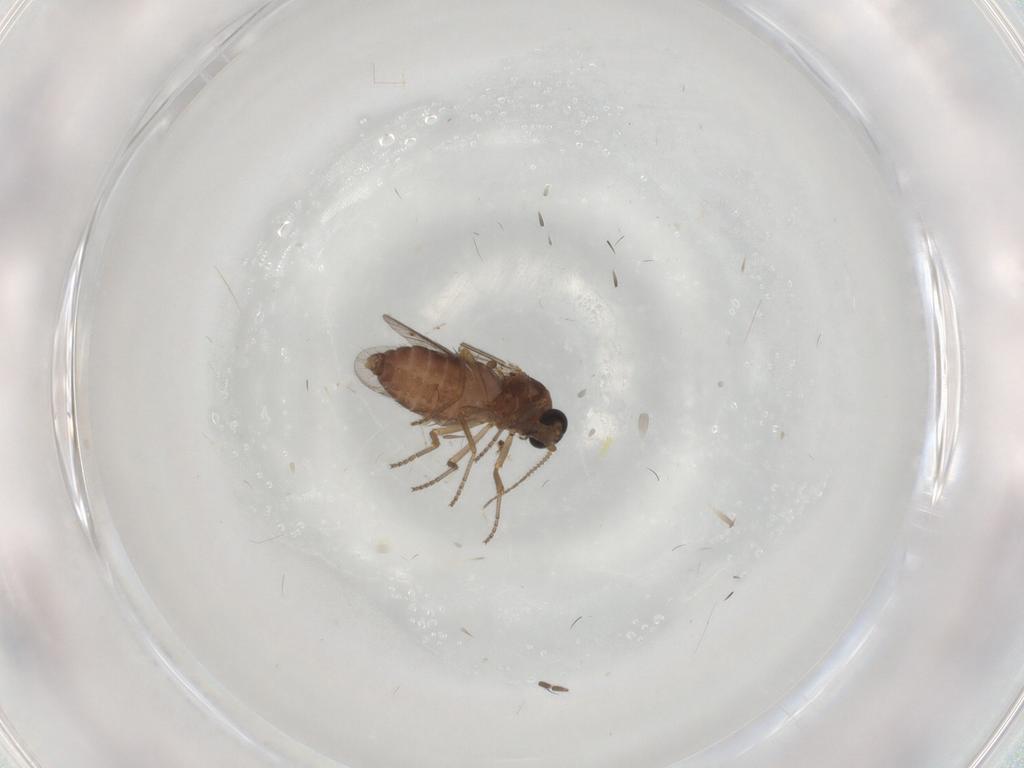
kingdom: Animalia
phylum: Arthropoda
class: Insecta
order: Diptera
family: Ceratopogonidae
